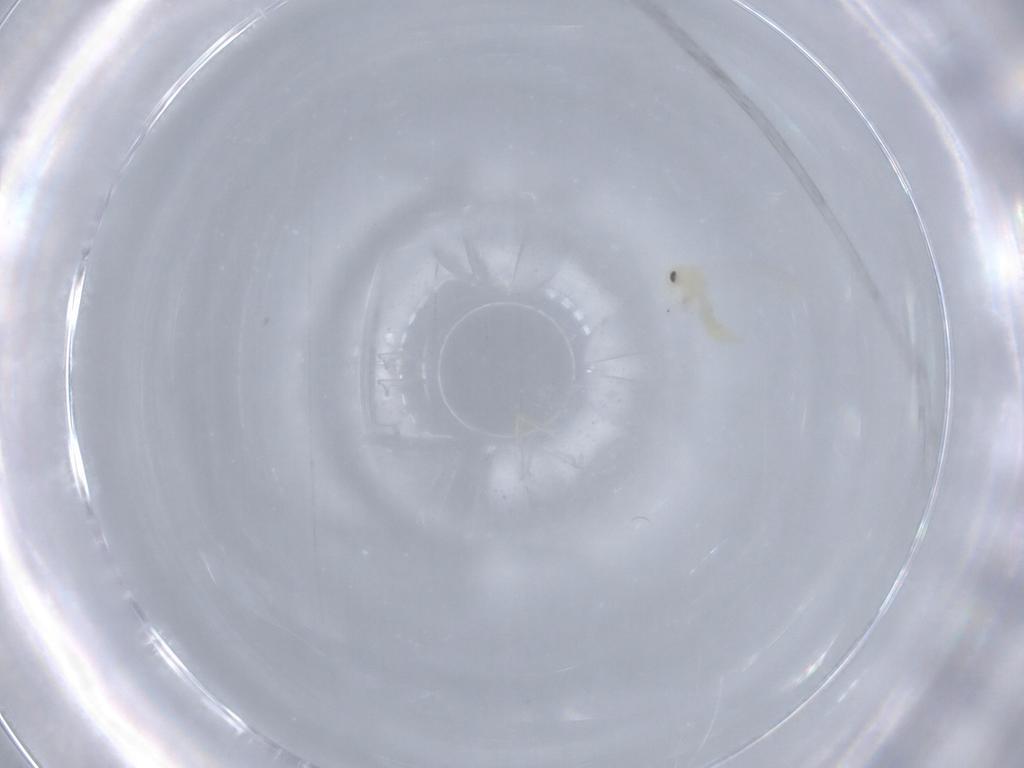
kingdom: Animalia
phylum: Arthropoda
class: Insecta
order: Hemiptera
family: Aleyrodidae
